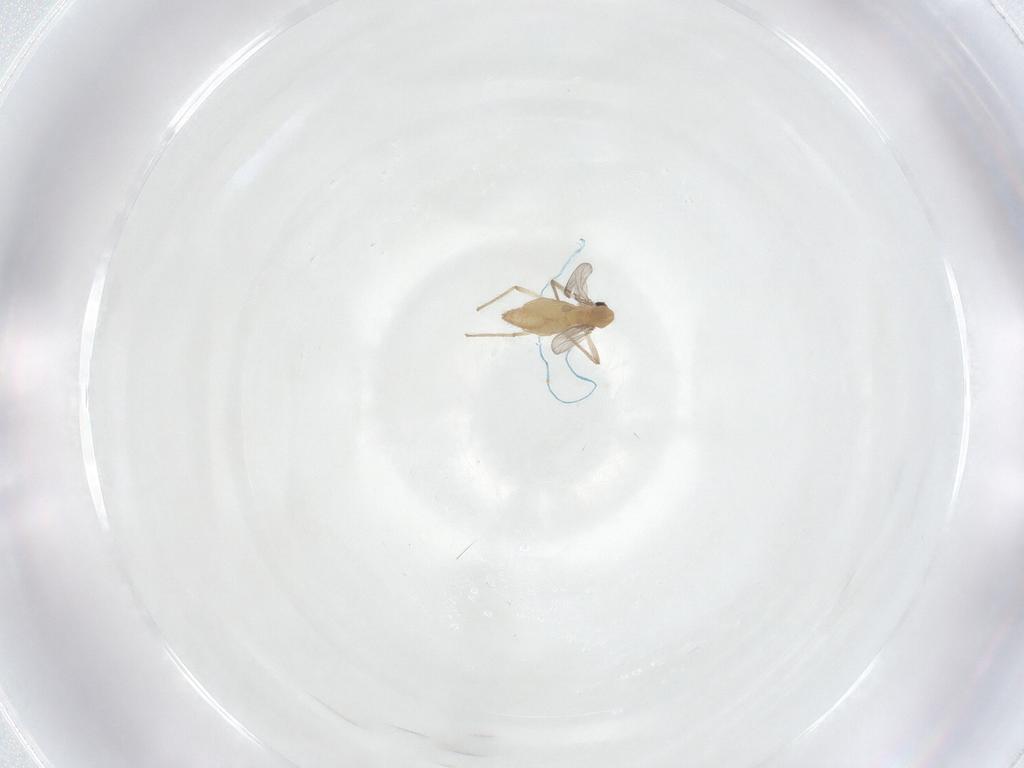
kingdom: Animalia
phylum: Arthropoda
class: Insecta
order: Diptera
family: Chironomidae
